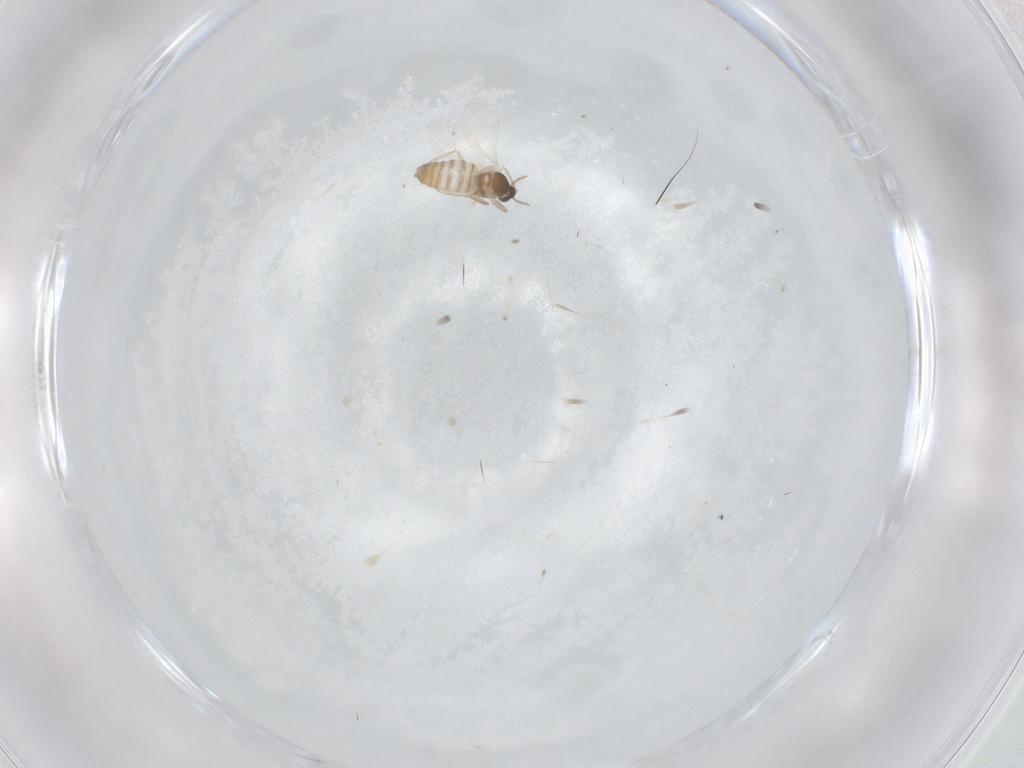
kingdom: Animalia
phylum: Arthropoda
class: Insecta
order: Diptera
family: Cecidomyiidae
